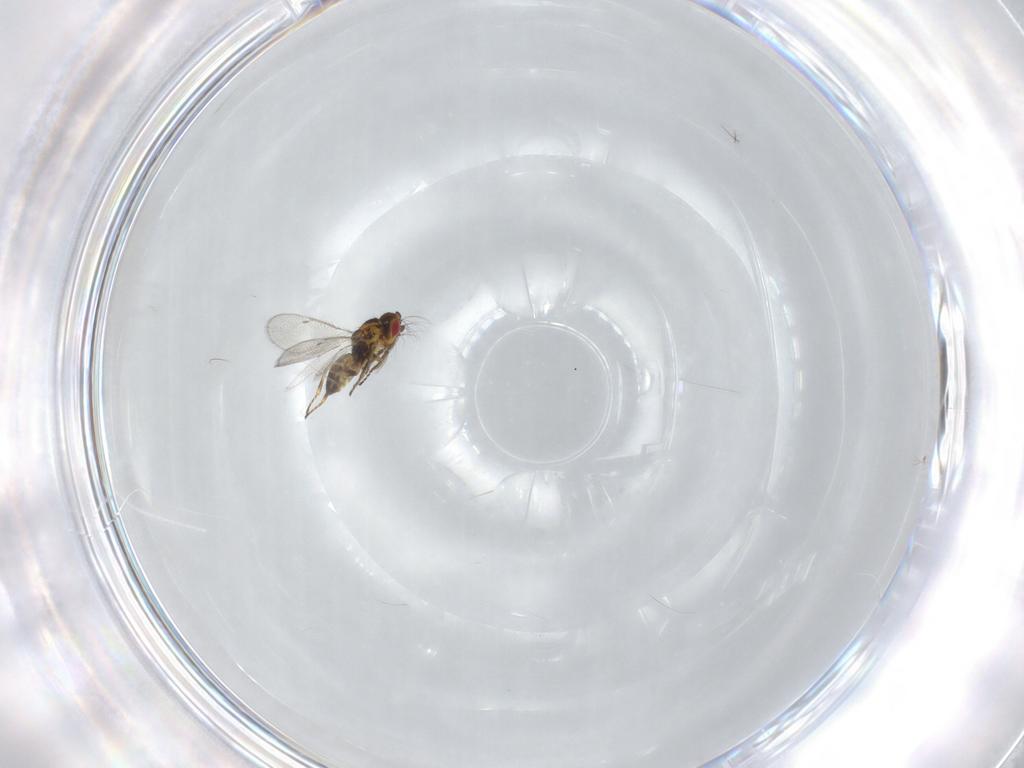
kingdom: Animalia
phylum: Arthropoda
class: Insecta
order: Hymenoptera
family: Eulophidae
